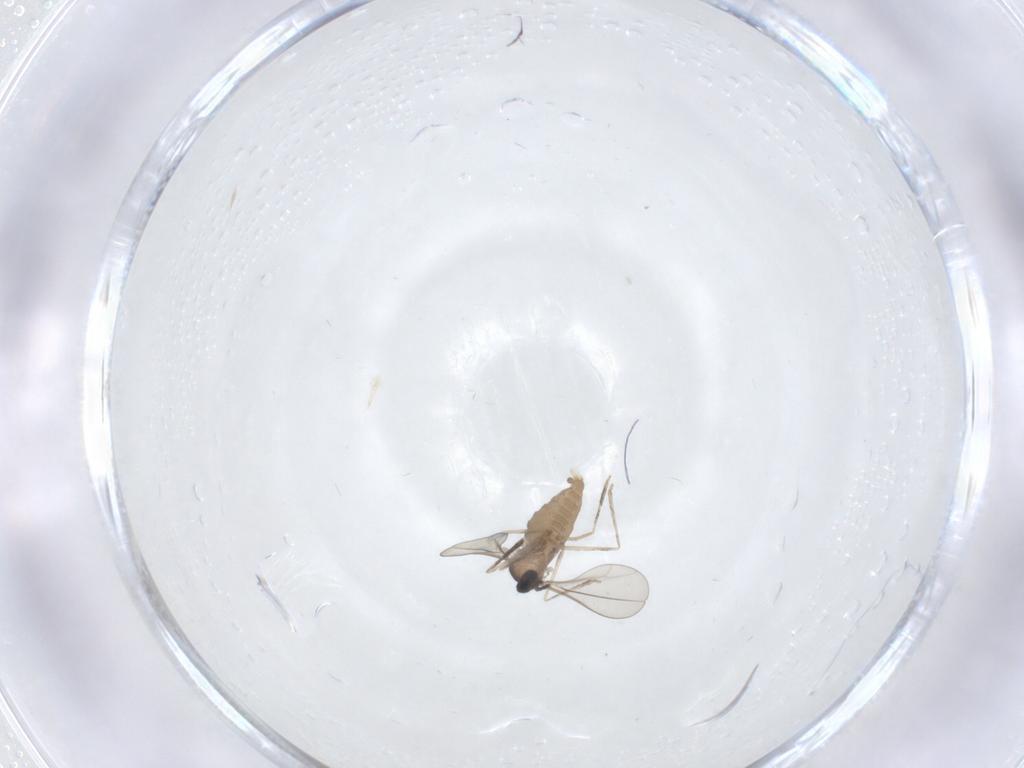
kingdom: Animalia
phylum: Arthropoda
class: Insecta
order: Diptera
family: Cecidomyiidae
